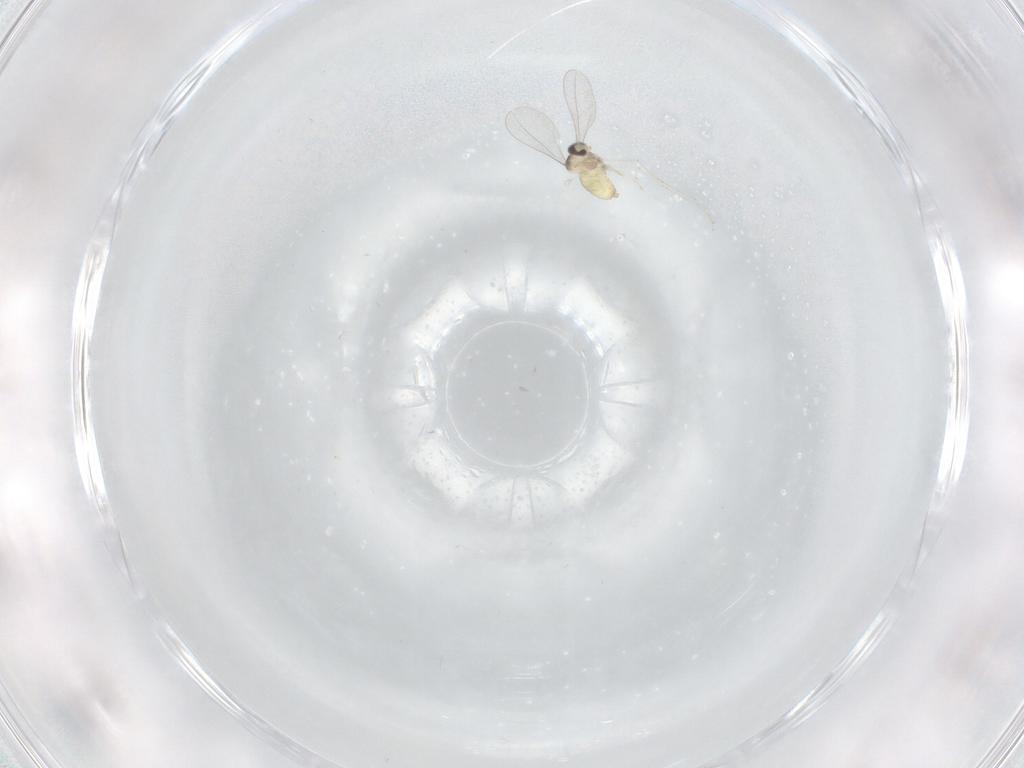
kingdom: Animalia
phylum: Arthropoda
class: Insecta
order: Diptera
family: Cecidomyiidae
